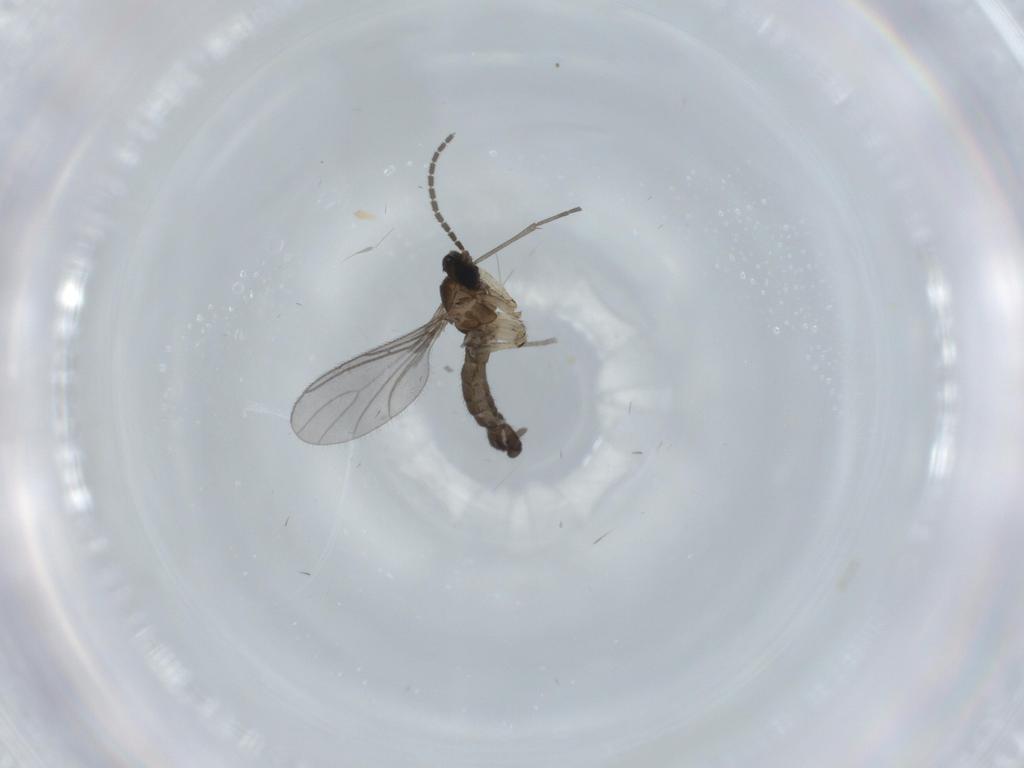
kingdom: Animalia
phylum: Arthropoda
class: Insecta
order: Diptera
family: Sciaridae
